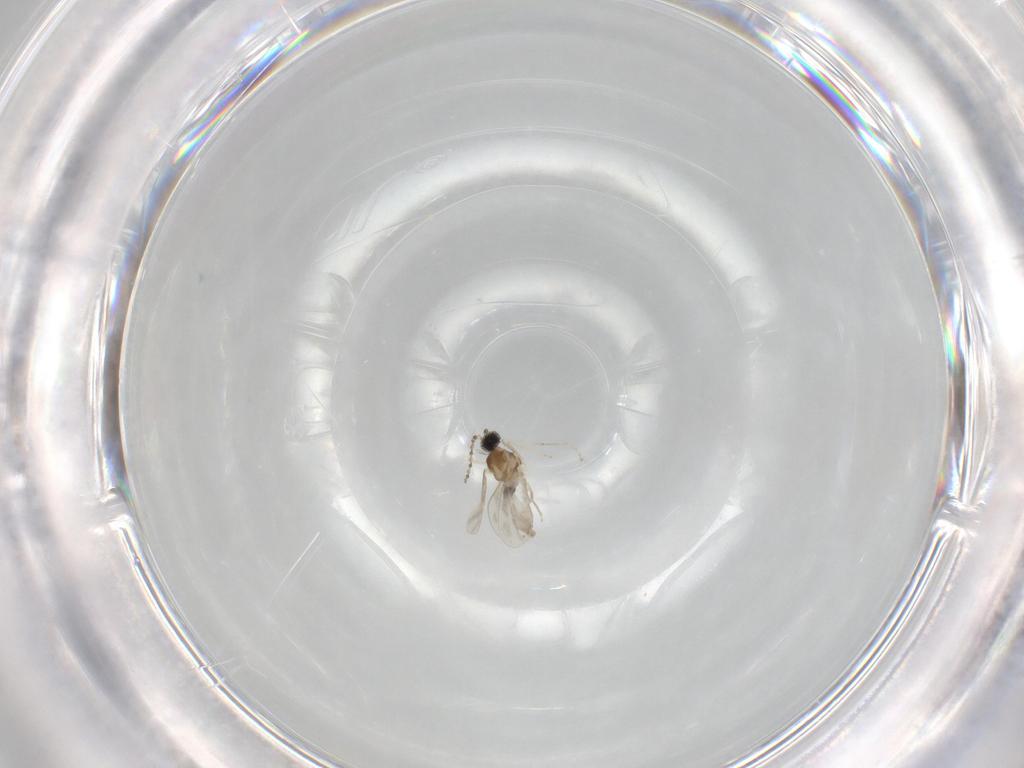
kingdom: Animalia
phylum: Arthropoda
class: Insecta
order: Diptera
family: Cecidomyiidae
